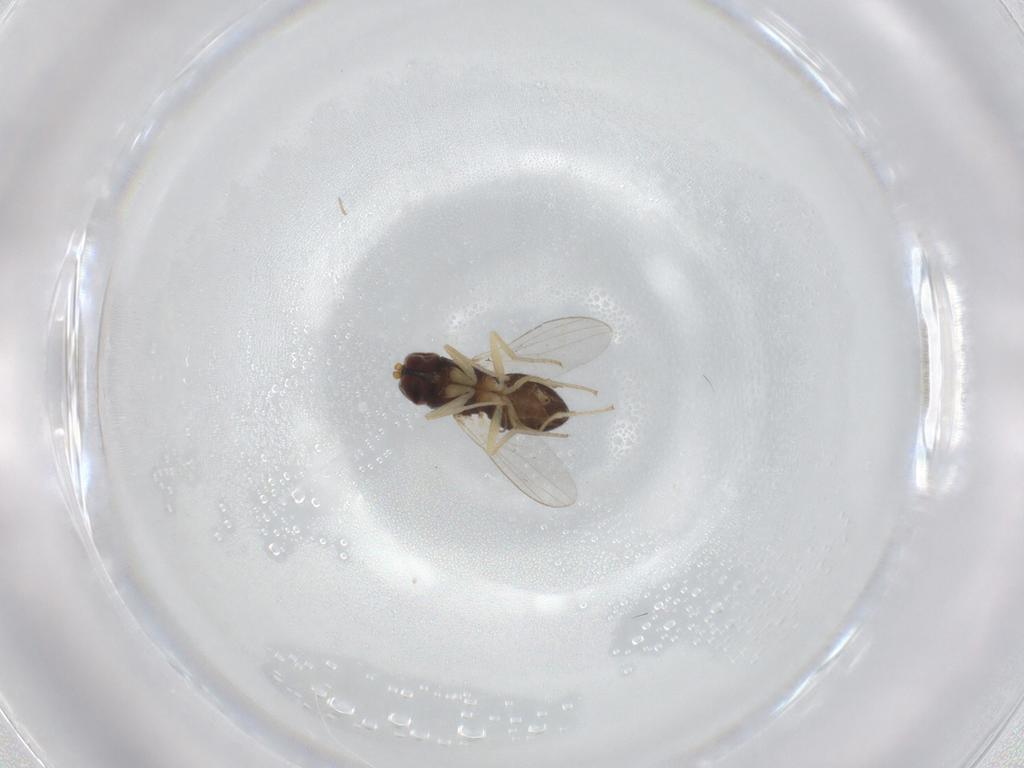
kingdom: Animalia
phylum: Arthropoda
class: Insecta
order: Diptera
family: Dolichopodidae
